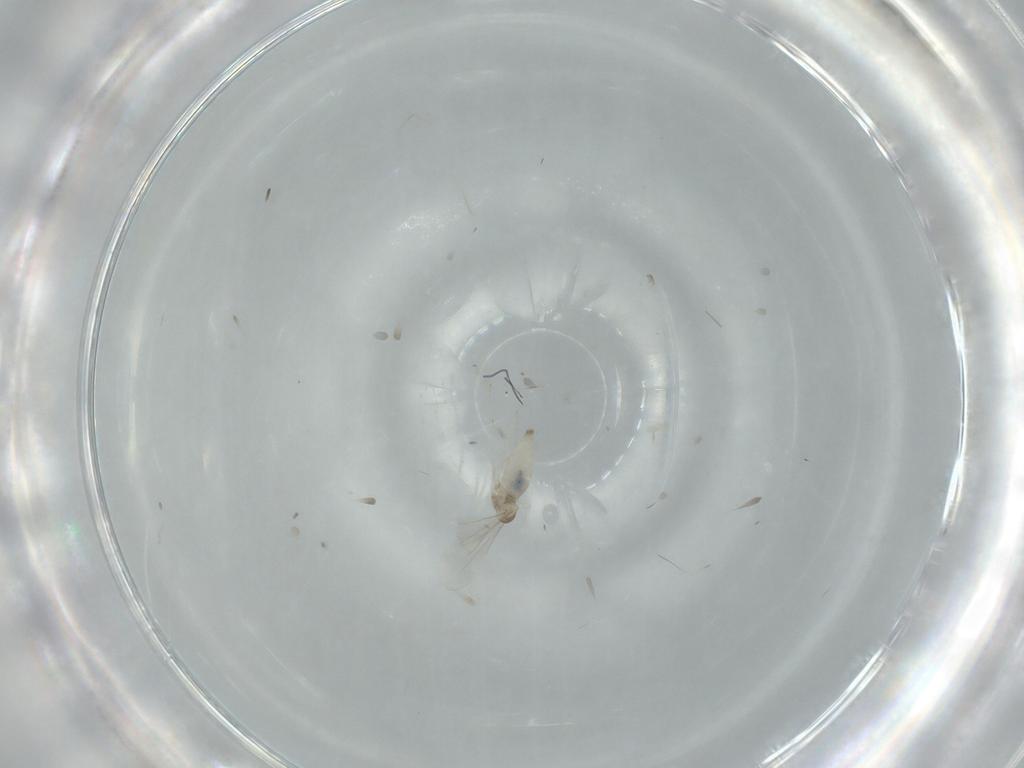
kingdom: Animalia
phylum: Arthropoda
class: Insecta
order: Diptera
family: Cecidomyiidae
